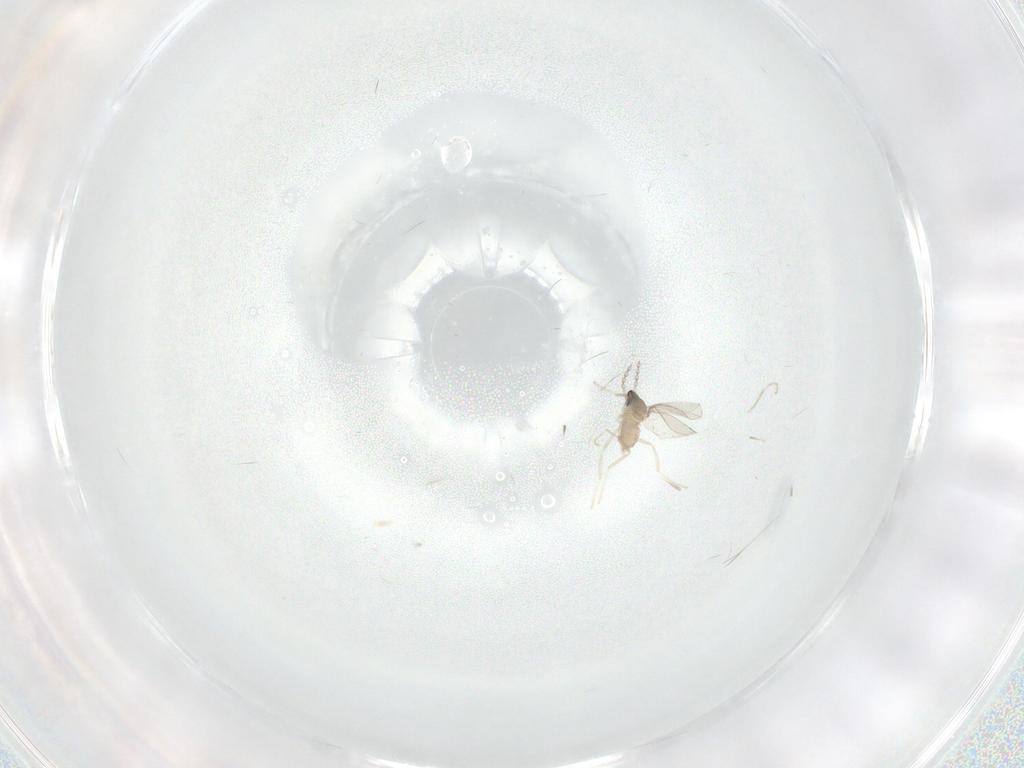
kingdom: Animalia
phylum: Arthropoda
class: Insecta
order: Diptera
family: Cecidomyiidae
